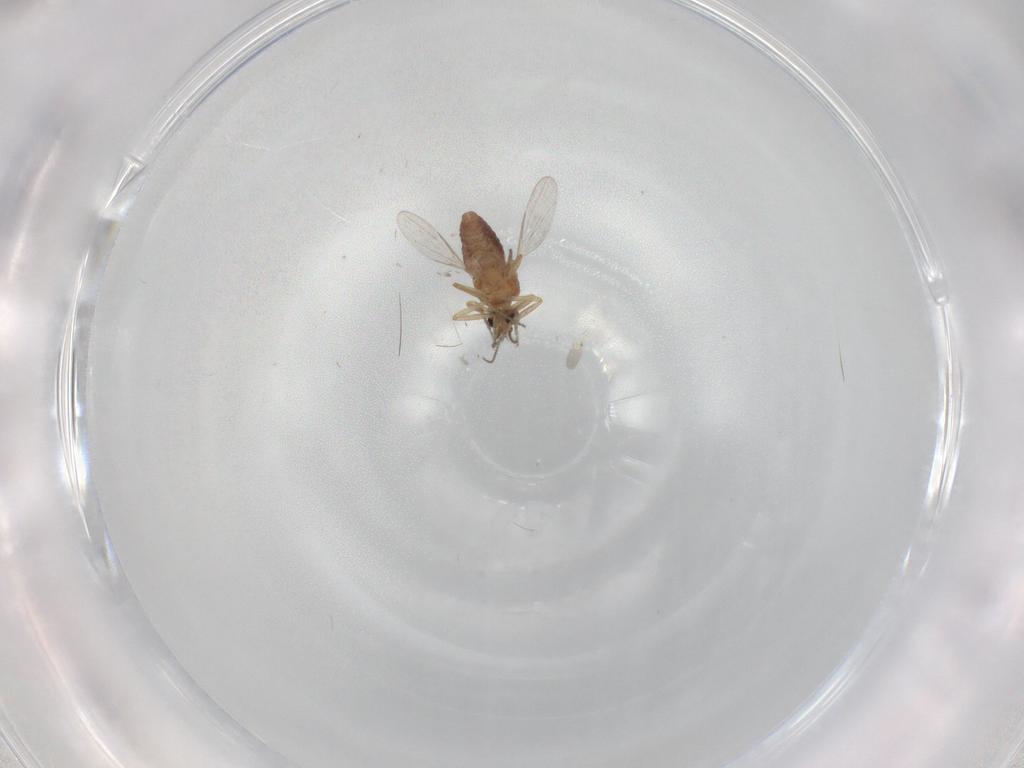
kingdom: Animalia
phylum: Arthropoda
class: Insecta
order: Diptera
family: Phoridae
